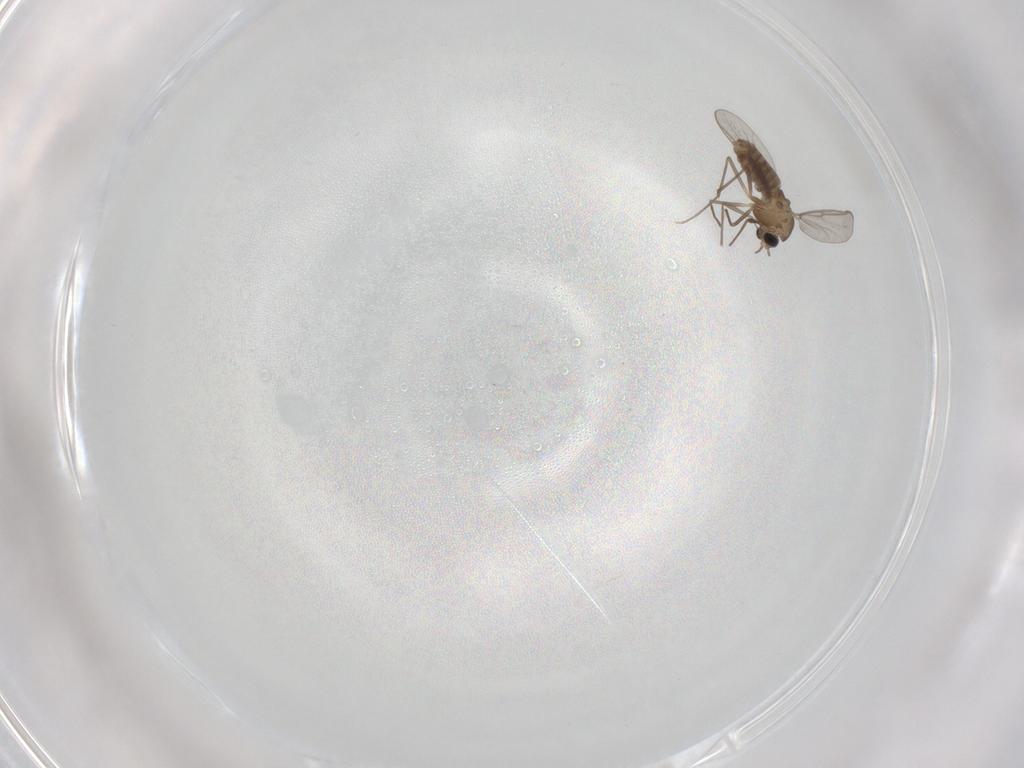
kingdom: Animalia
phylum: Arthropoda
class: Insecta
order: Diptera
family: Chironomidae
